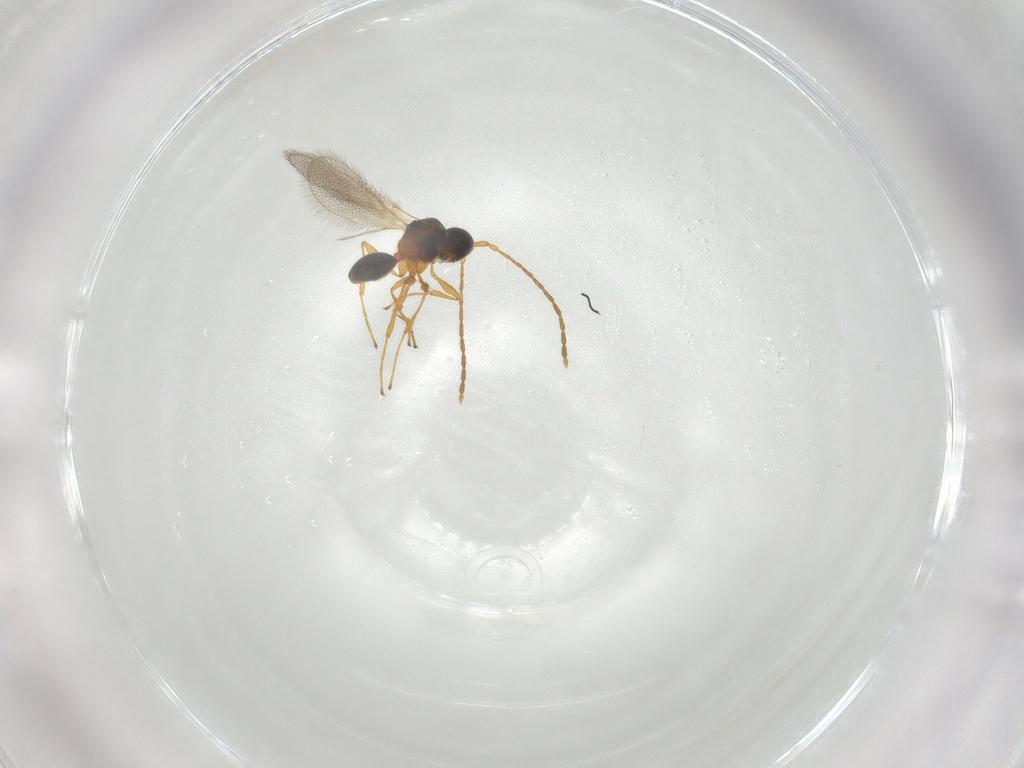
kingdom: Animalia
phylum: Arthropoda
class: Insecta
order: Hymenoptera
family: Diapriidae
